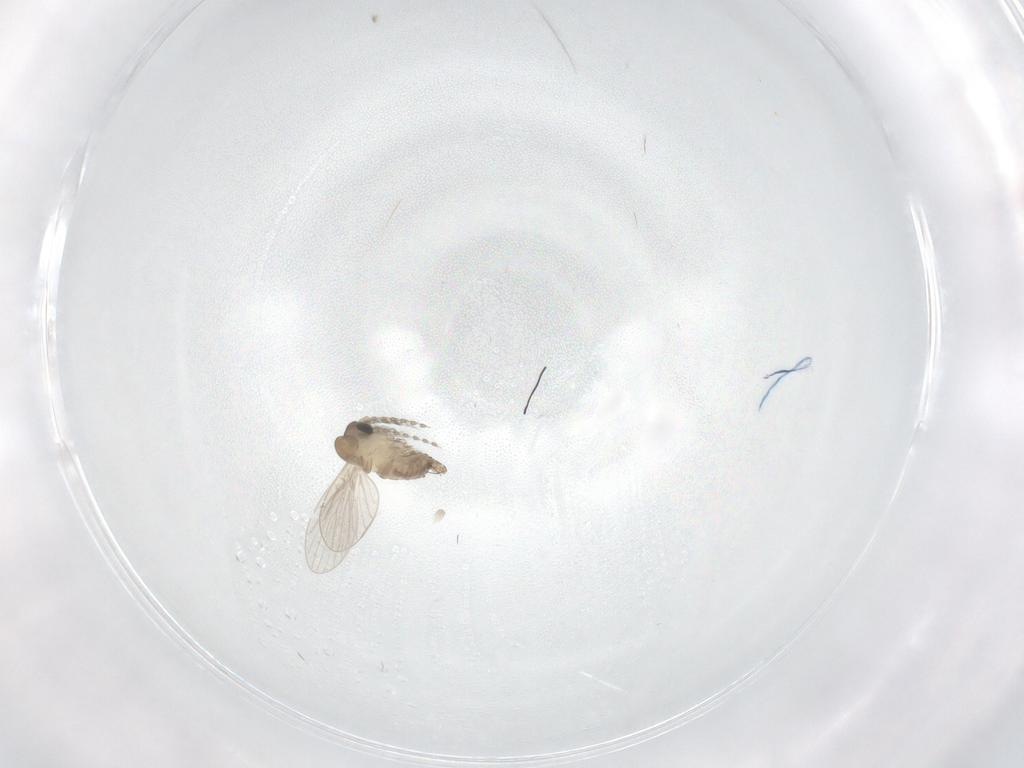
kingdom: Animalia
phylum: Arthropoda
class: Insecta
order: Diptera
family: Psychodidae
